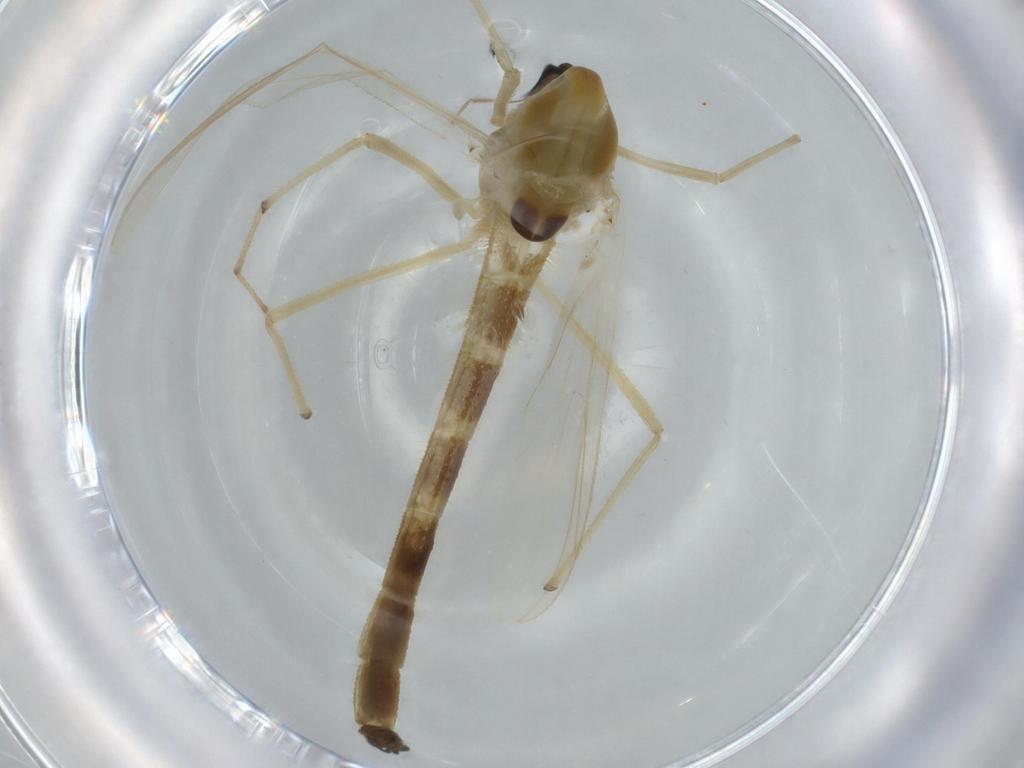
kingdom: Animalia
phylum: Arthropoda
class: Insecta
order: Diptera
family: Chironomidae
